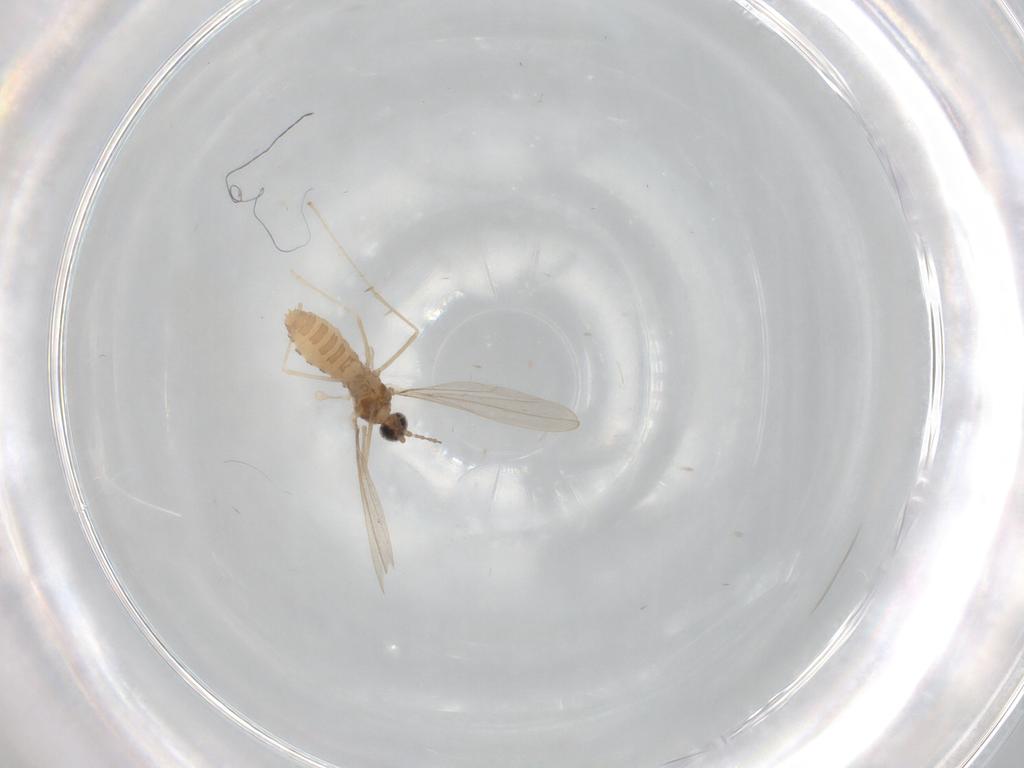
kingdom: Animalia
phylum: Arthropoda
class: Insecta
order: Diptera
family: Cecidomyiidae
